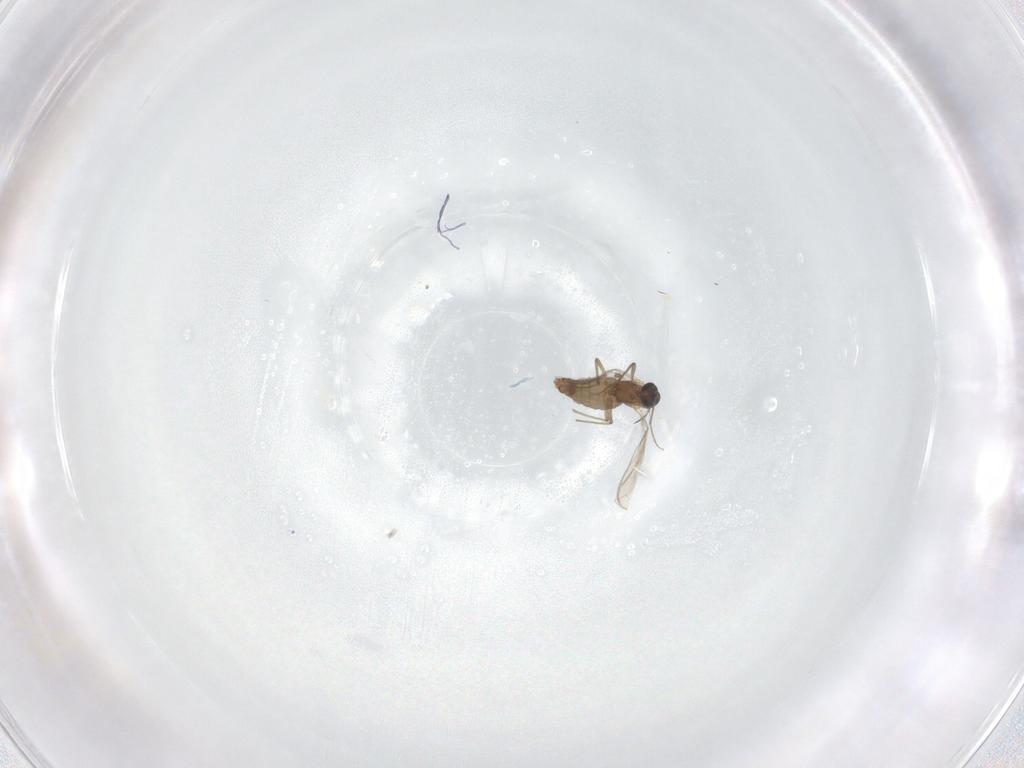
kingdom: Animalia
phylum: Arthropoda
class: Insecta
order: Diptera
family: Chironomidae
